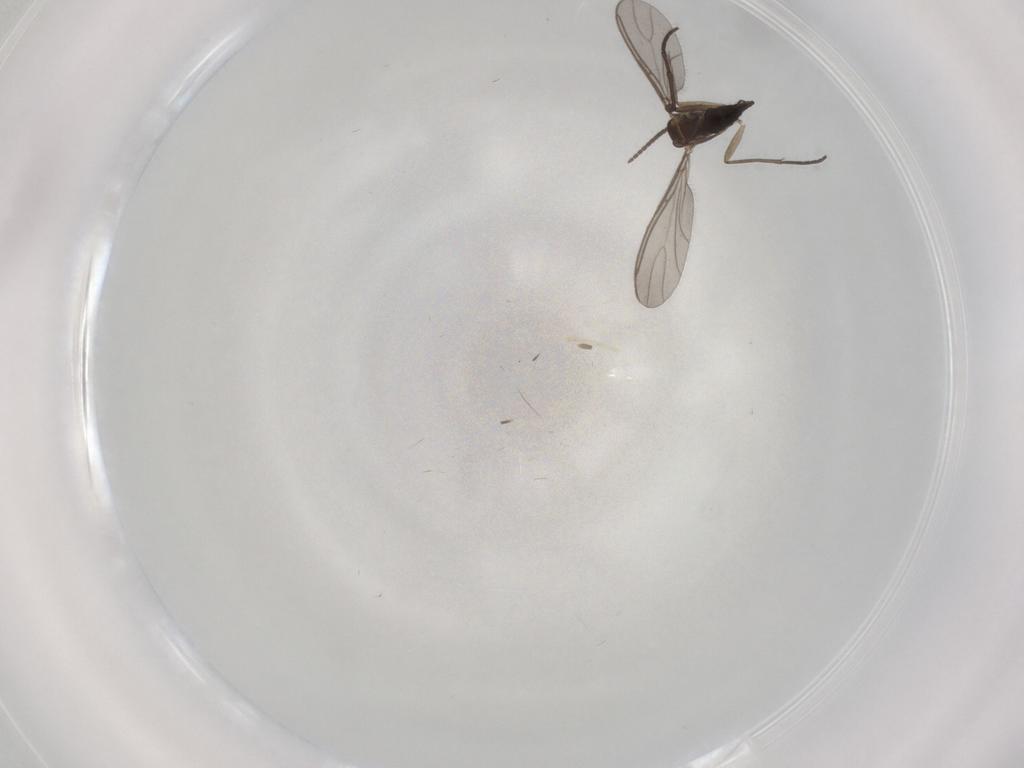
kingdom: Animalia
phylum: Arthropoda
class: Insecta
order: Diptera
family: Sciaridae
